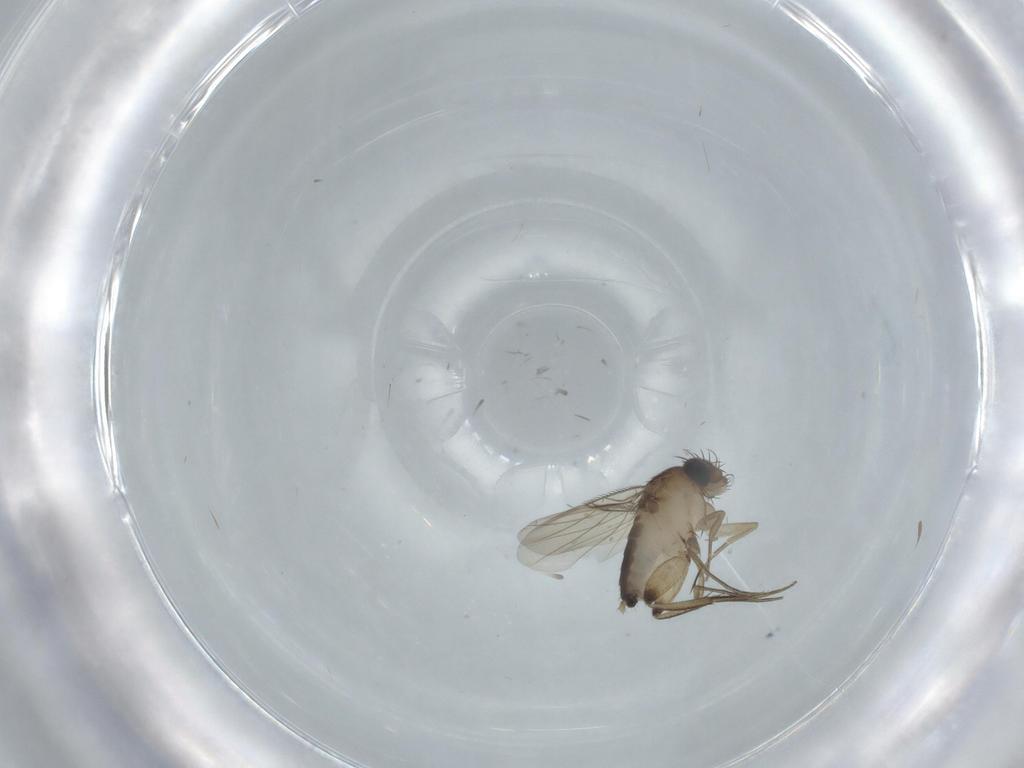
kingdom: Animalia
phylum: Arthropoda
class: Insecta
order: Diptera
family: Phoridae
